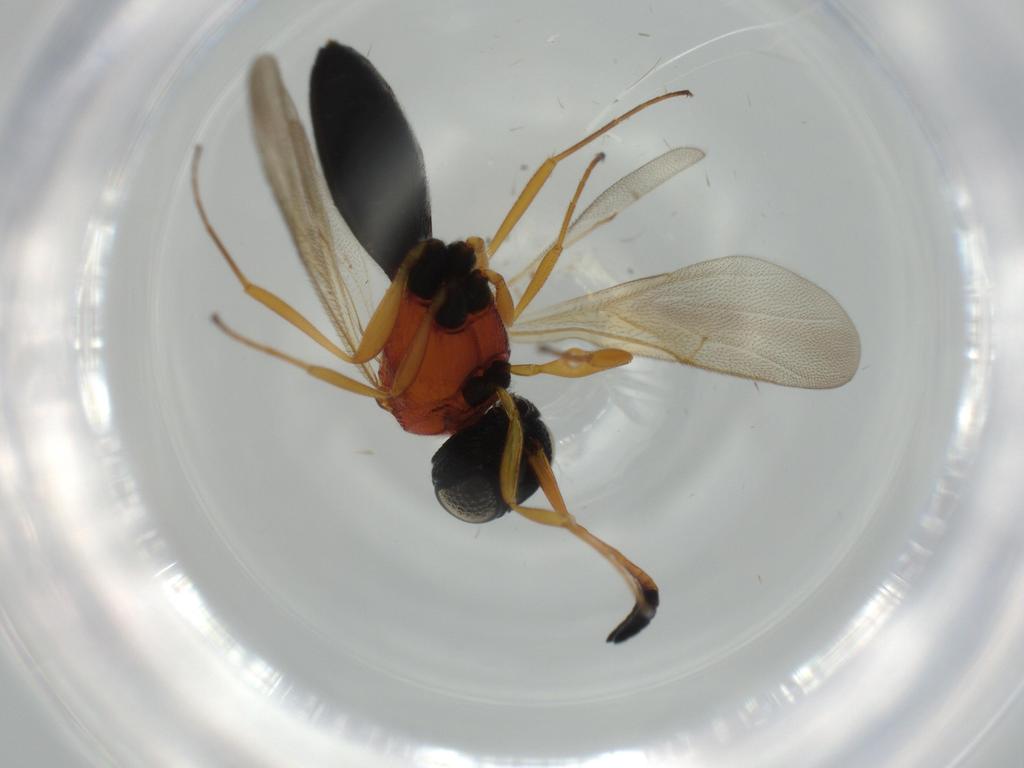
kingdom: Animalia
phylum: Arthropoda
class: Insecta
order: Hymenoptera
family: Scelionidae
